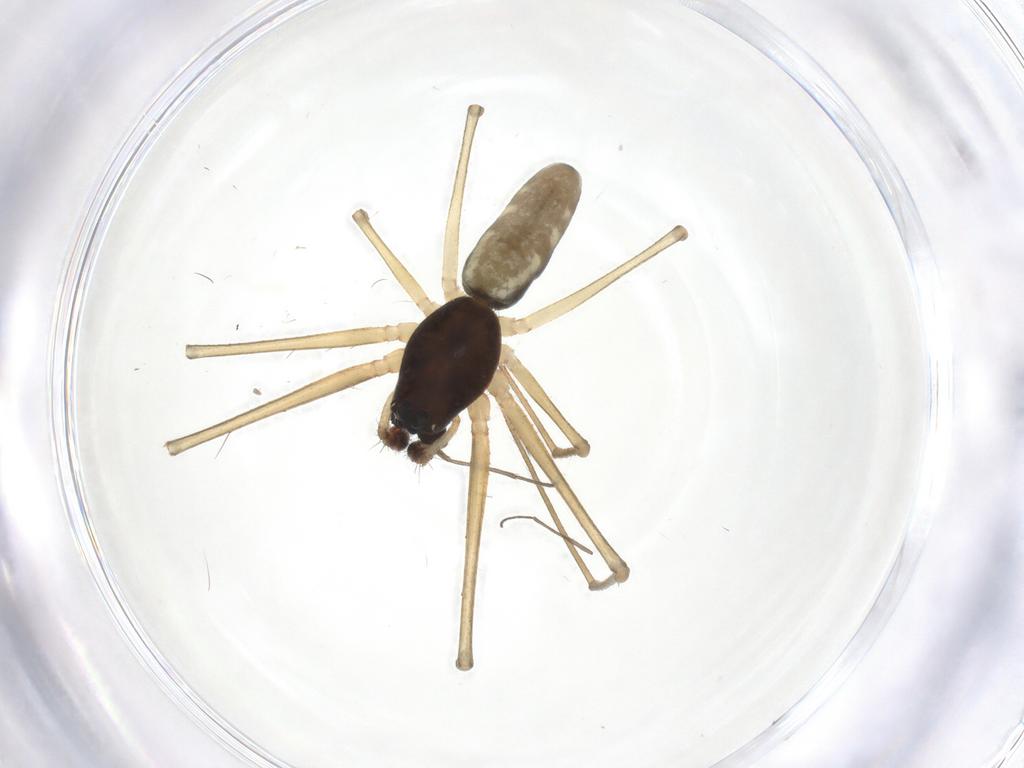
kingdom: Animalia
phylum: Arthropoda
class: Arachnida
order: Araneae
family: Linyphiidae
